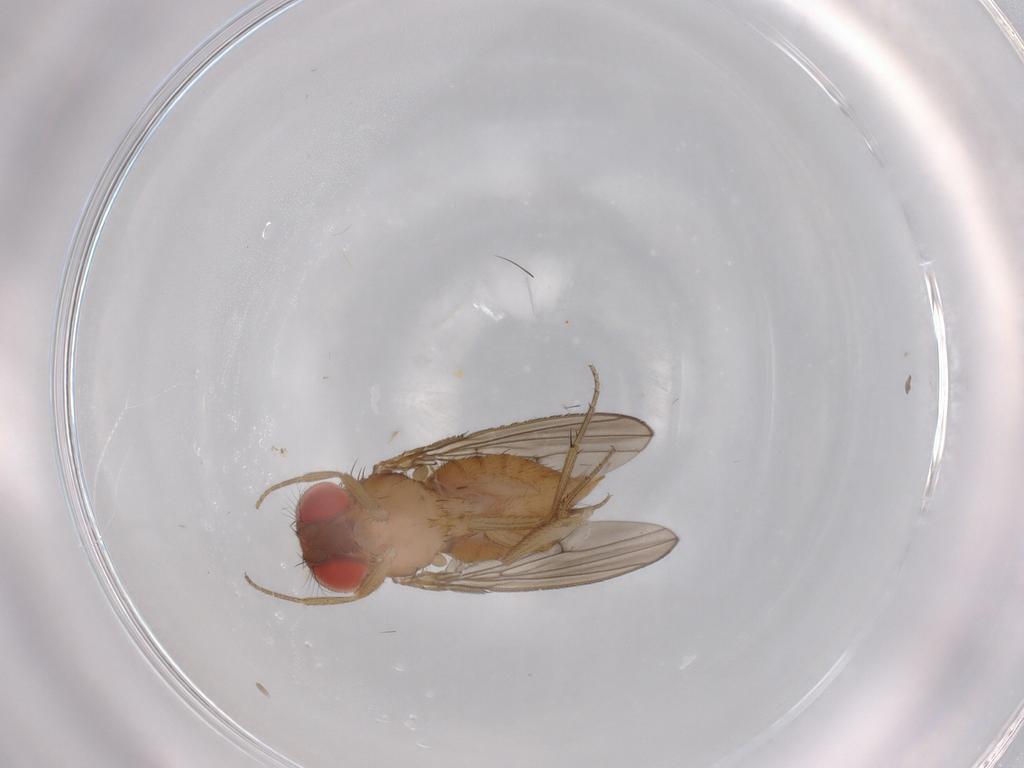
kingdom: Animalia
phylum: Arthropoda
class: Insecta
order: Diptera
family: Drosophilidae
